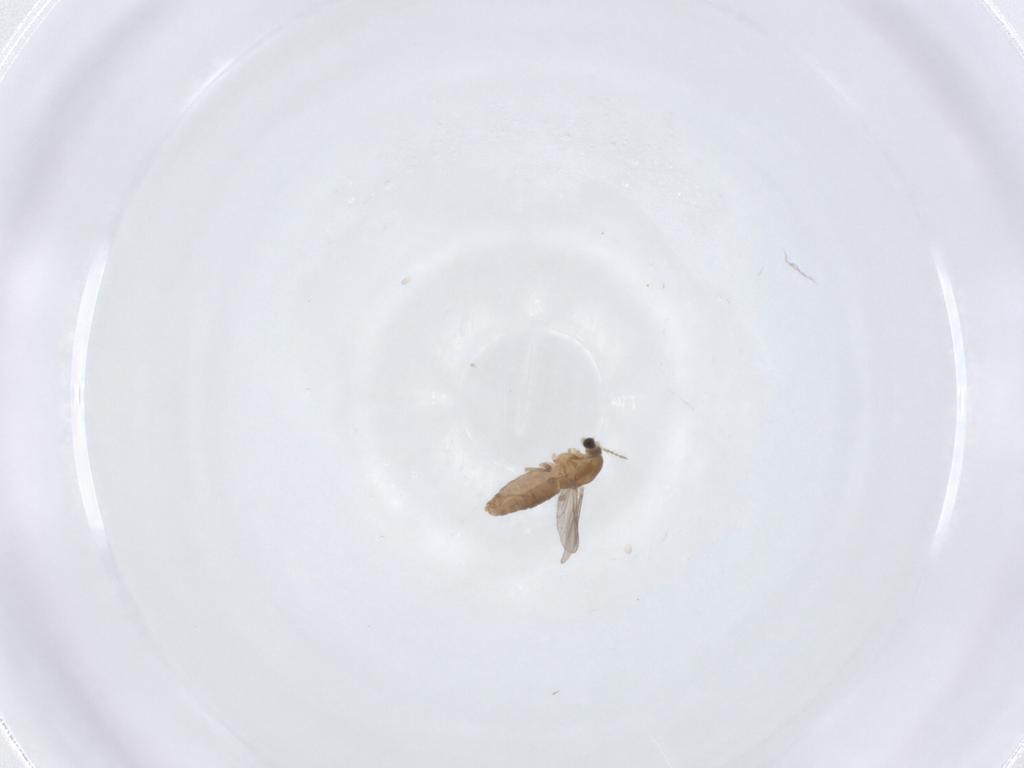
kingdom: Animalia
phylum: Arthropoda
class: Insecta
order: Diptera
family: Chironomidae
